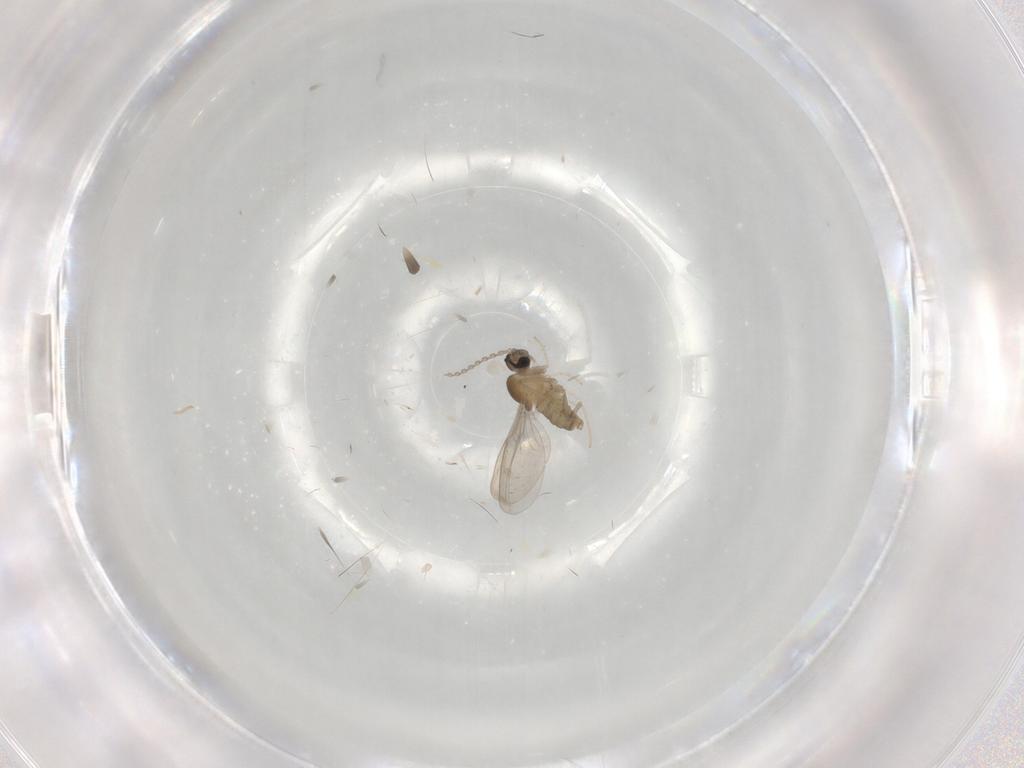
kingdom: Animalia
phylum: Arthropoda
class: Insecta
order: Diptera
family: Cecidomyiidae
